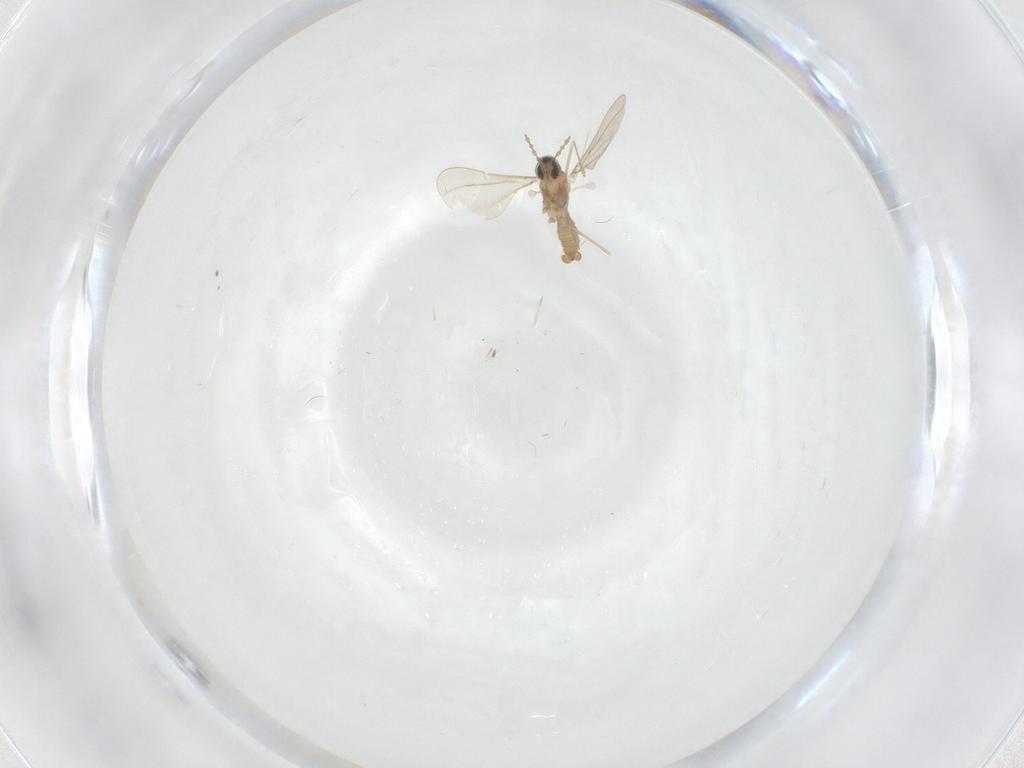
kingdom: Animalia
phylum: Arthropoda
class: Insecta
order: Diptera
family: Cecidomyiidae
